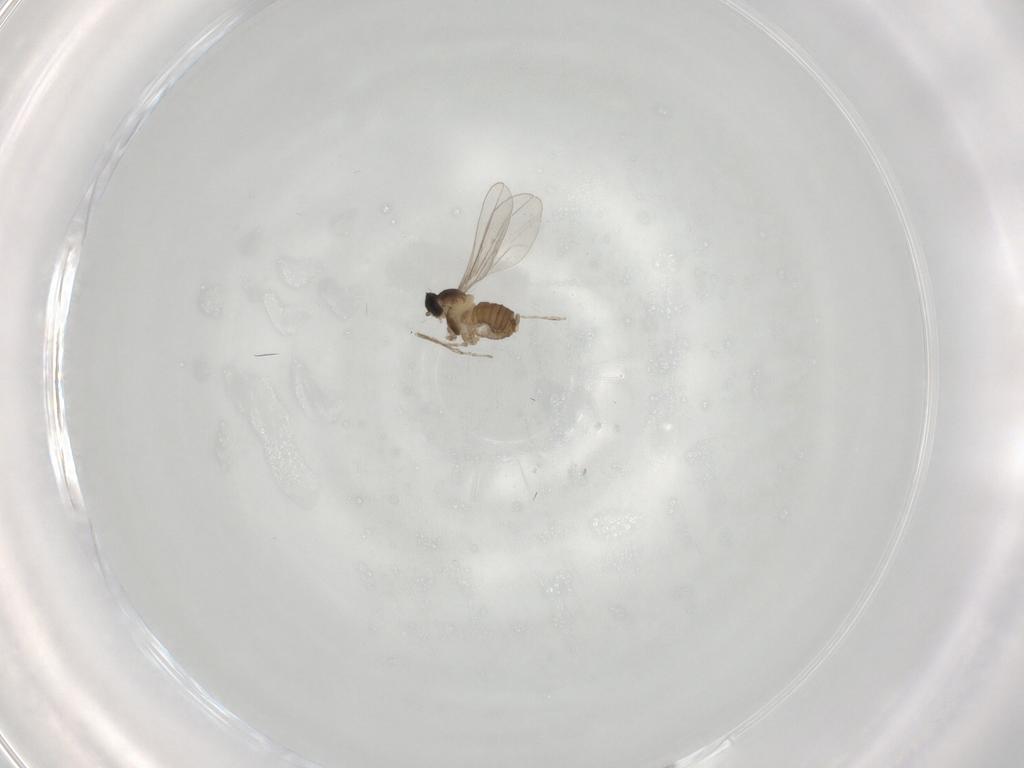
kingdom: Animalia
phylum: Arthropoda
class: Insecta
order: Diptera
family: Cecidomyiidae
